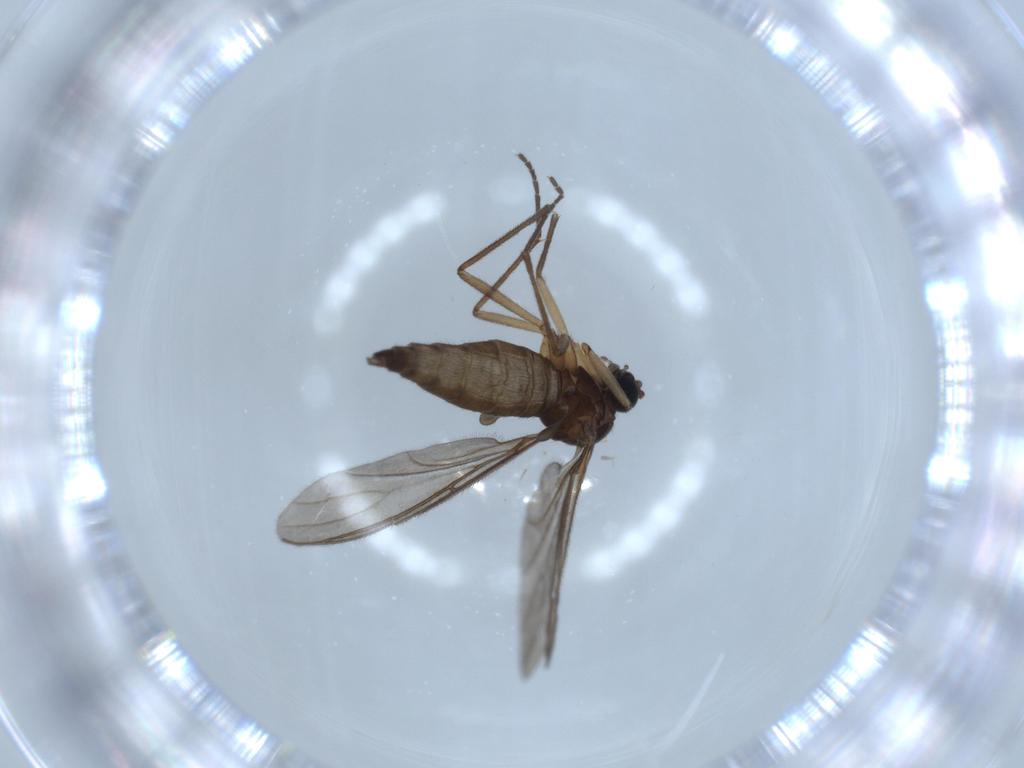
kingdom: Animalia
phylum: Arthropoda
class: Insecta
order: Diptera
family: Sciaridae
